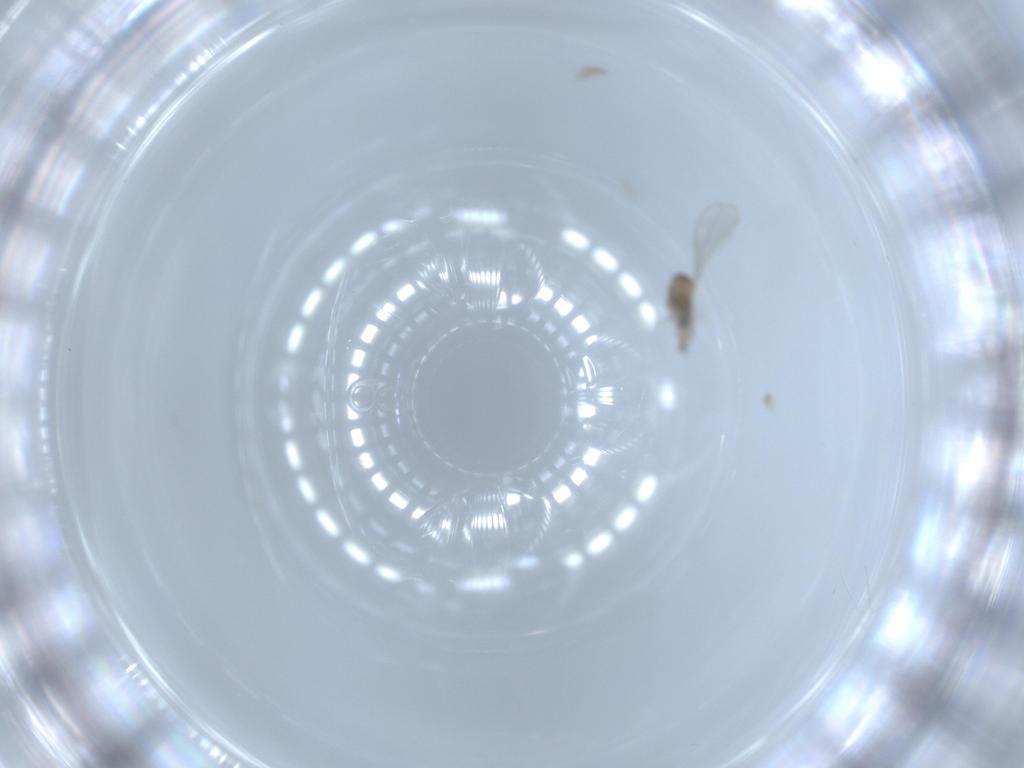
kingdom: Animalia
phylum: Arthropoda
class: Insecta
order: Diptera
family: Cecidomyiidae
